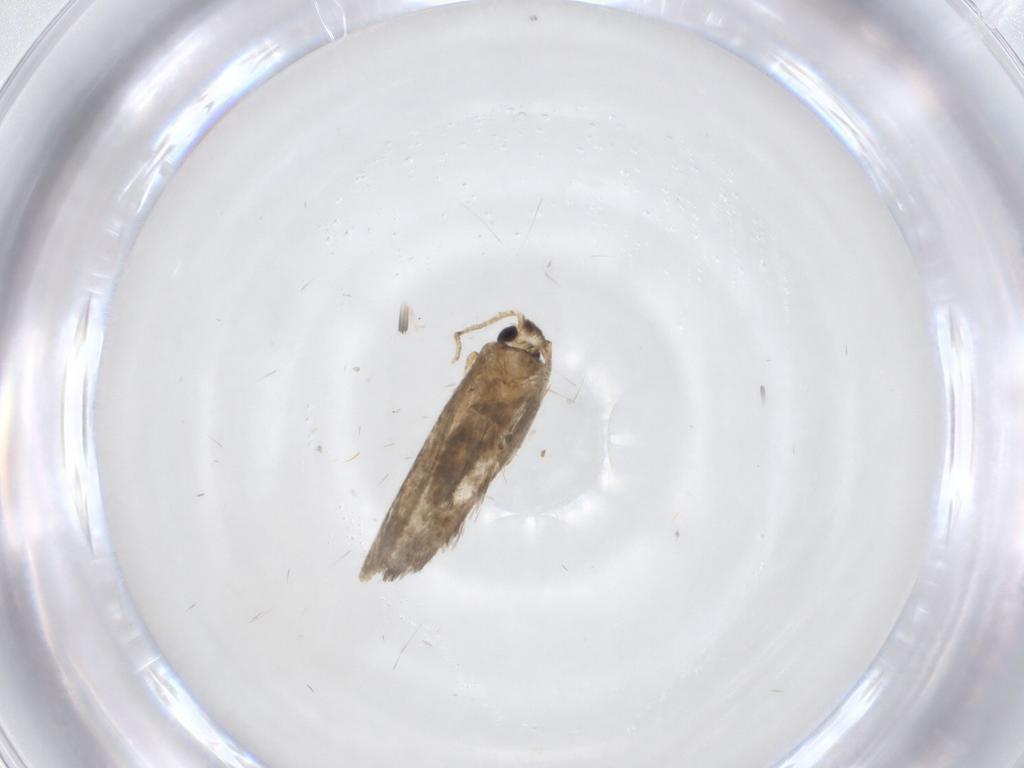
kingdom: Animalia
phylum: Arthropoda
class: Insecta
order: Lepidoptera
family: Psychidae
